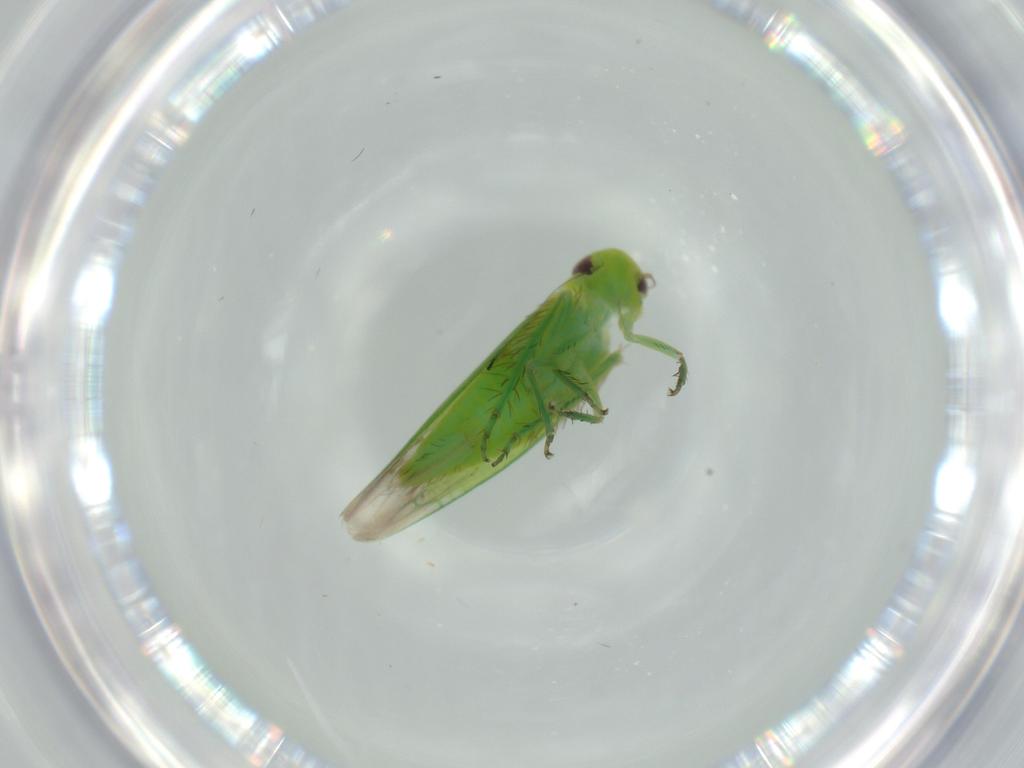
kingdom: Animalia
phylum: Arthropoda
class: Insecta
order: Hemiptera
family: Cicadellidae
